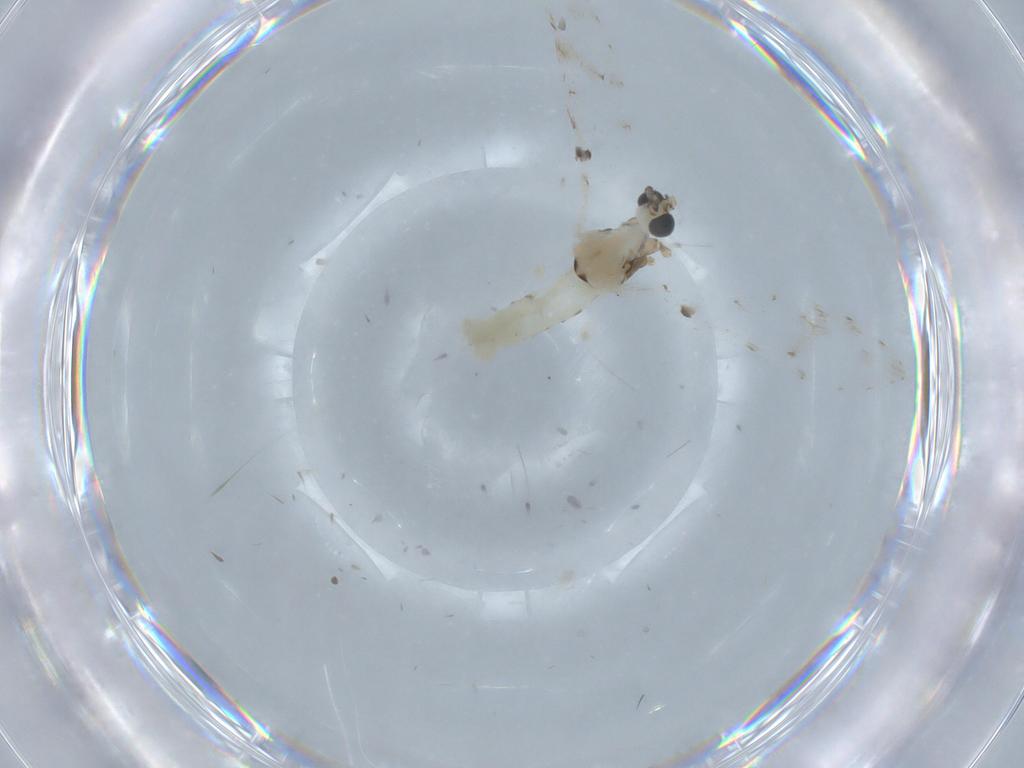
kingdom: Animalia
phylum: Arthropoda
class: Insecta
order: Diptera
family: Limoniidae
